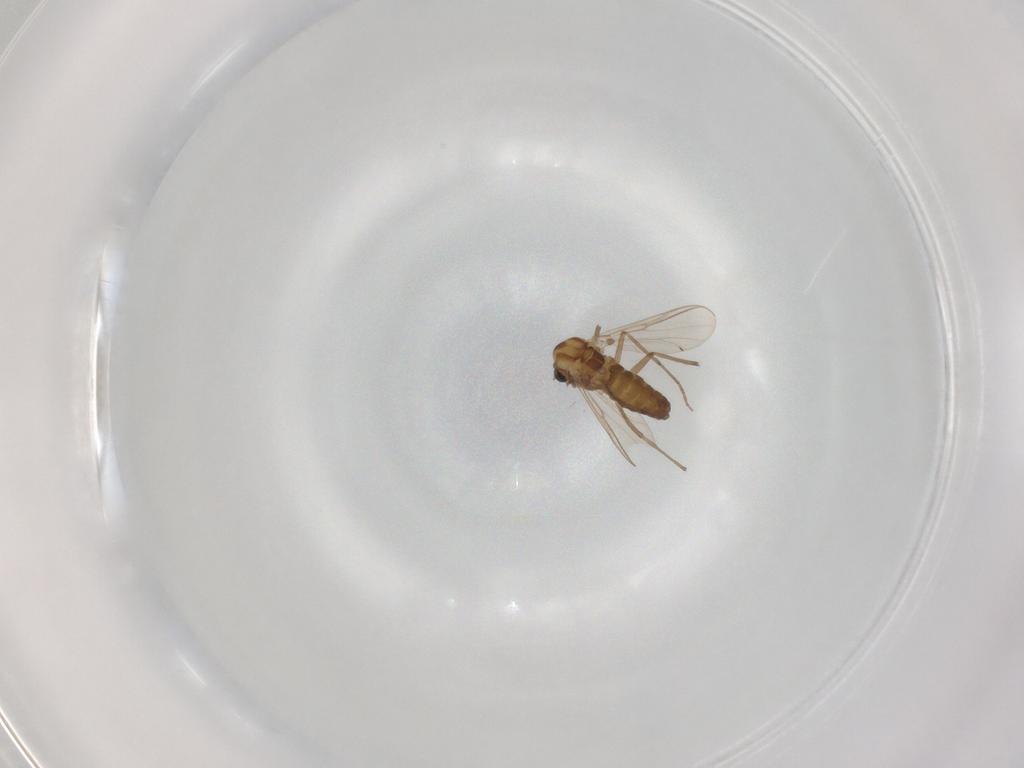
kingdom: Animalia
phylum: Arthropoda
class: Insecta
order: Diptera
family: Chironomidae
